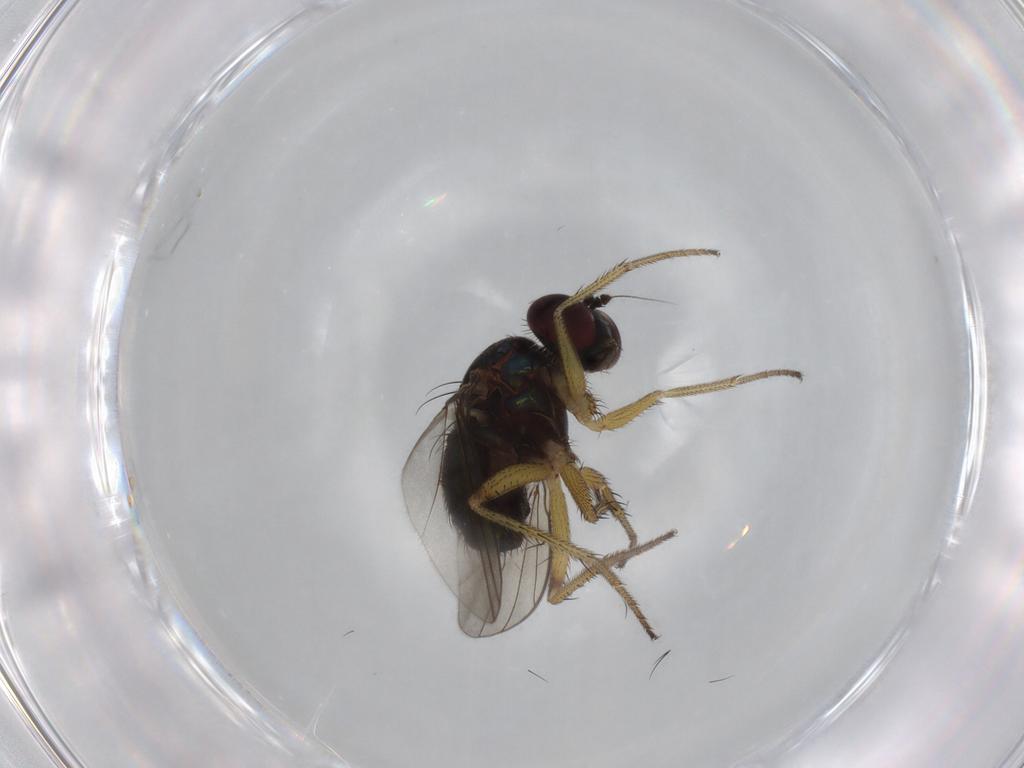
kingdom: Animalia
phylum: Arthropoda
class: Insecta
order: Diptera
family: Dolichopodidae
